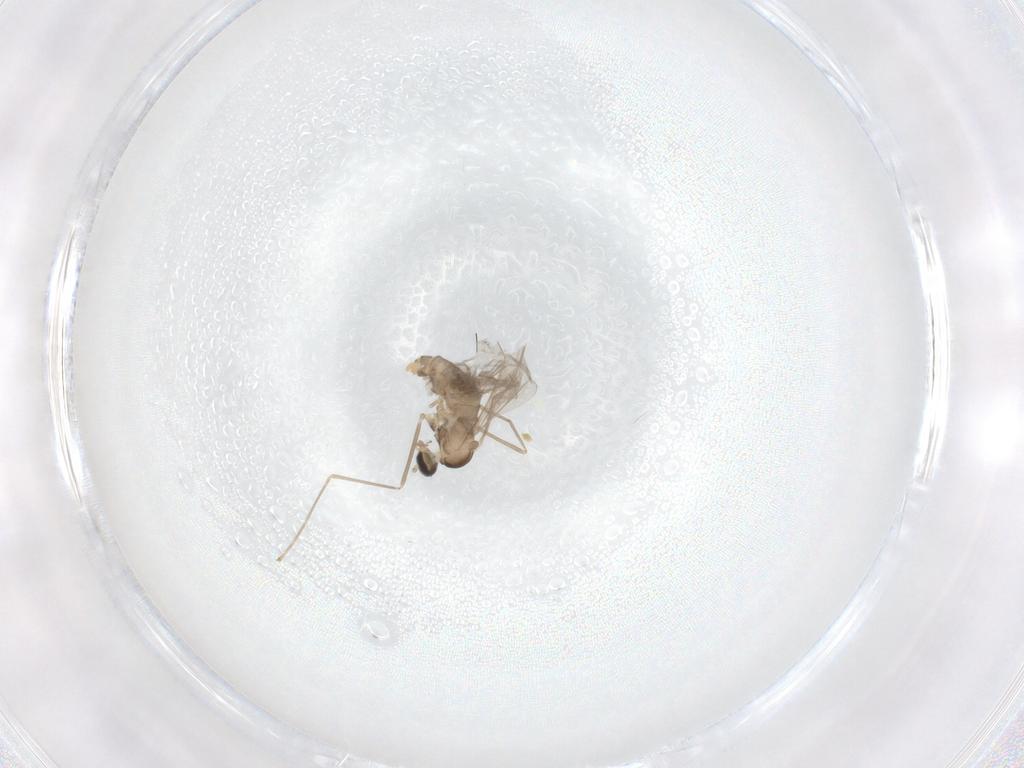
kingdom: Animalia
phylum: Arthropoda
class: Insecta
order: Diptera
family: Cecidomyiidae
